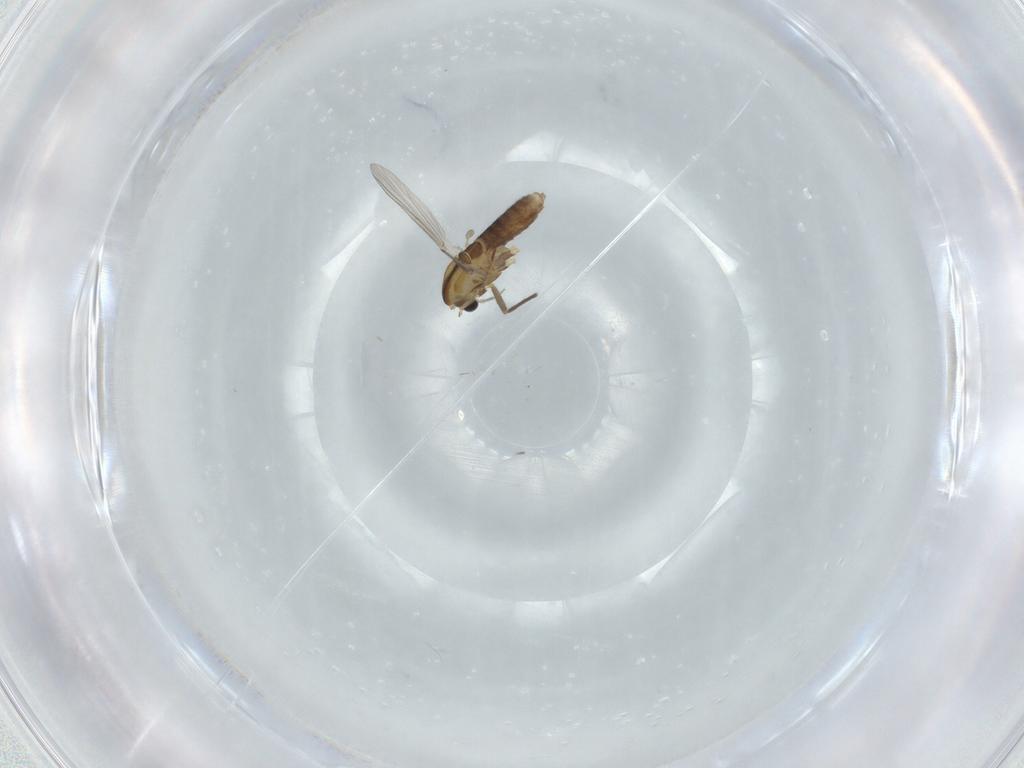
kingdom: Animalia
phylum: Arthropoda
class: Insecta
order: Diptera
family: Chironomidae
